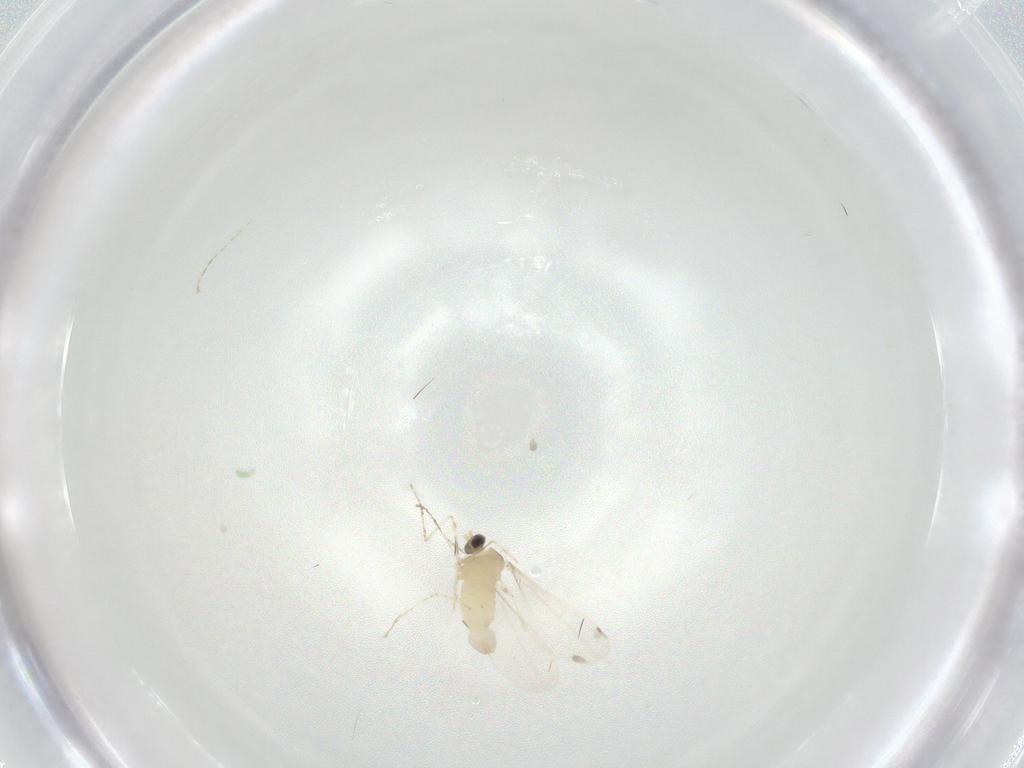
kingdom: Animalia
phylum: Arthropoda
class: Insecta
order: Diptera
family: Cecidomyiidae
